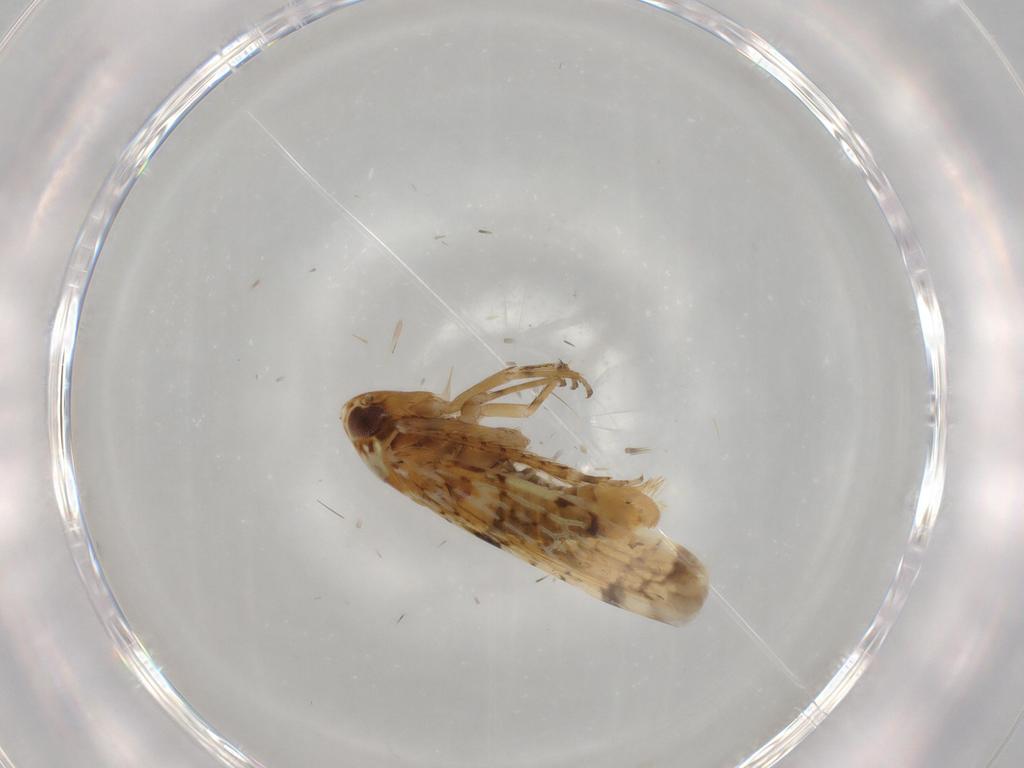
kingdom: Animalia
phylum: Arthropoda
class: Insecta
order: Hemiptera
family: Cicadellidae
